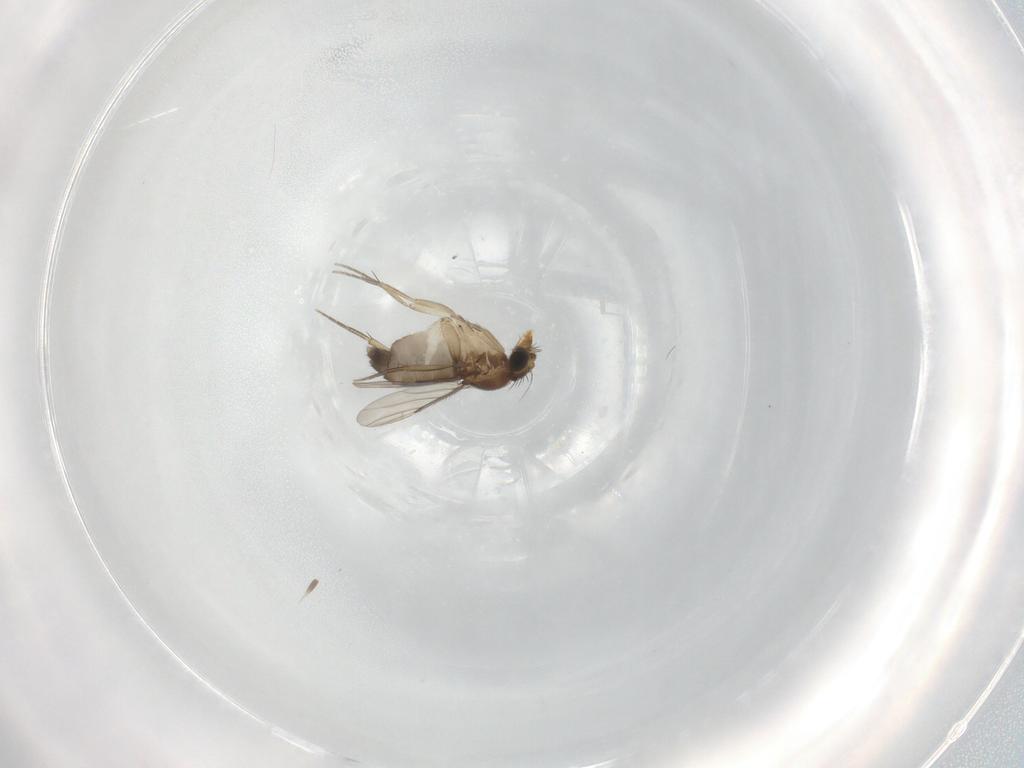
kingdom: Animalia
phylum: Arthropoda
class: Insecta
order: Diptera
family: Phoridae
